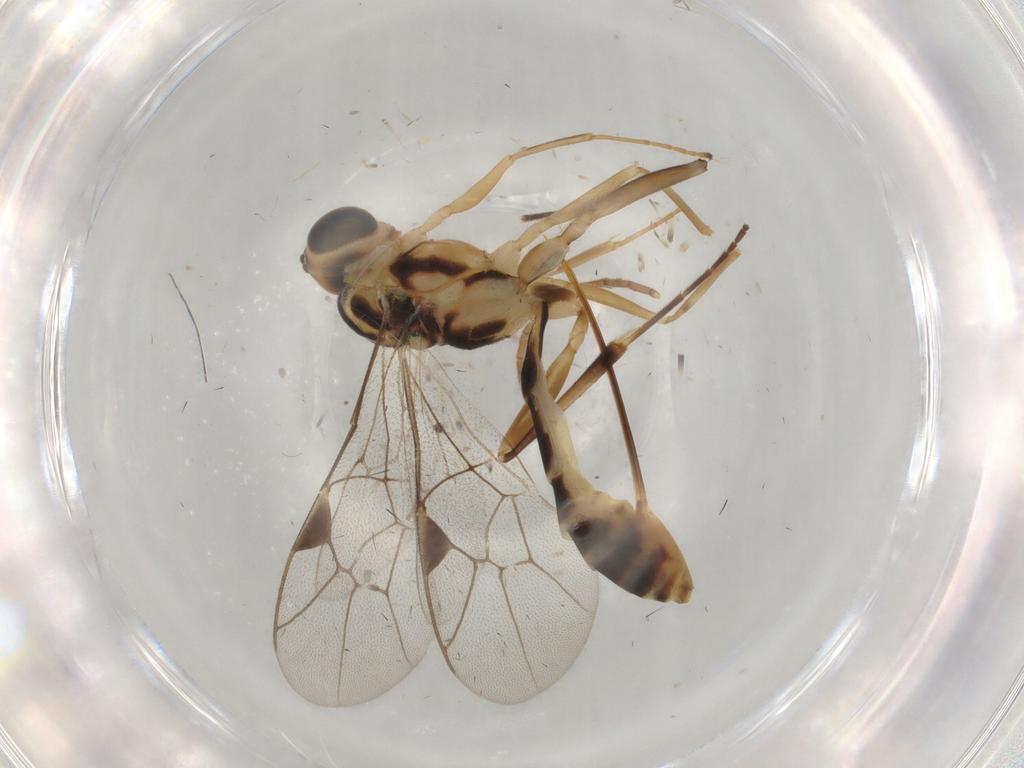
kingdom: Animalia
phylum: Arthropoda
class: Insecta
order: Hymenoptera
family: Ichneumonidae
